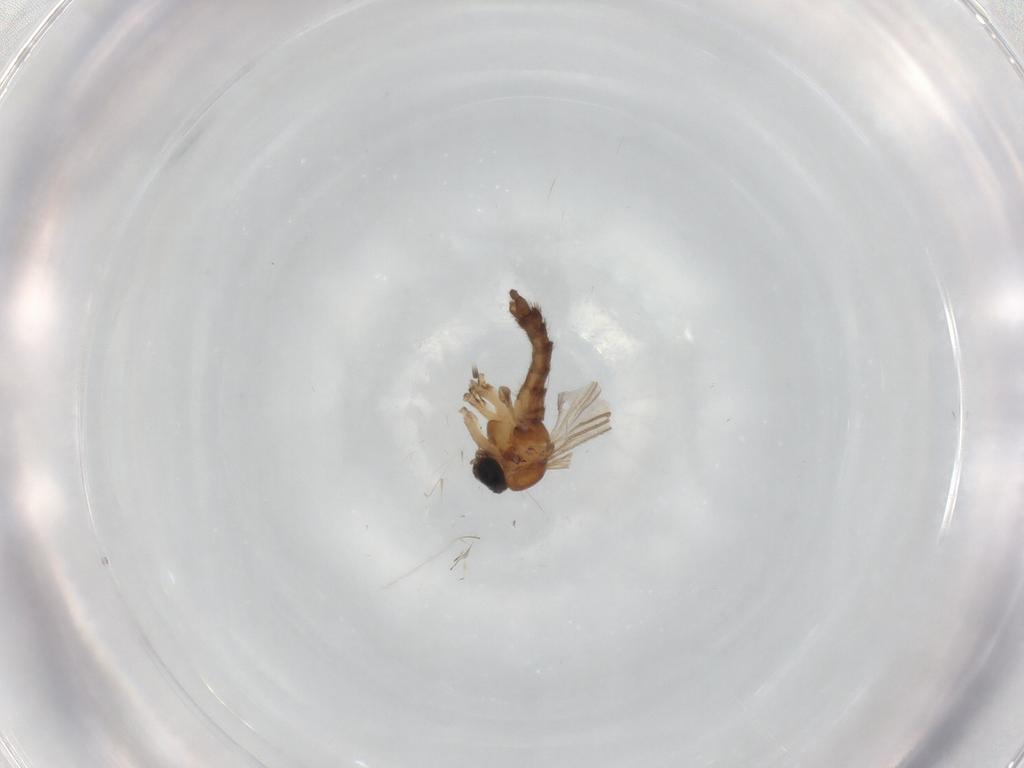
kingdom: Animalia
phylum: Arthropoda
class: Insecta
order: Diptera
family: Sciaridae
